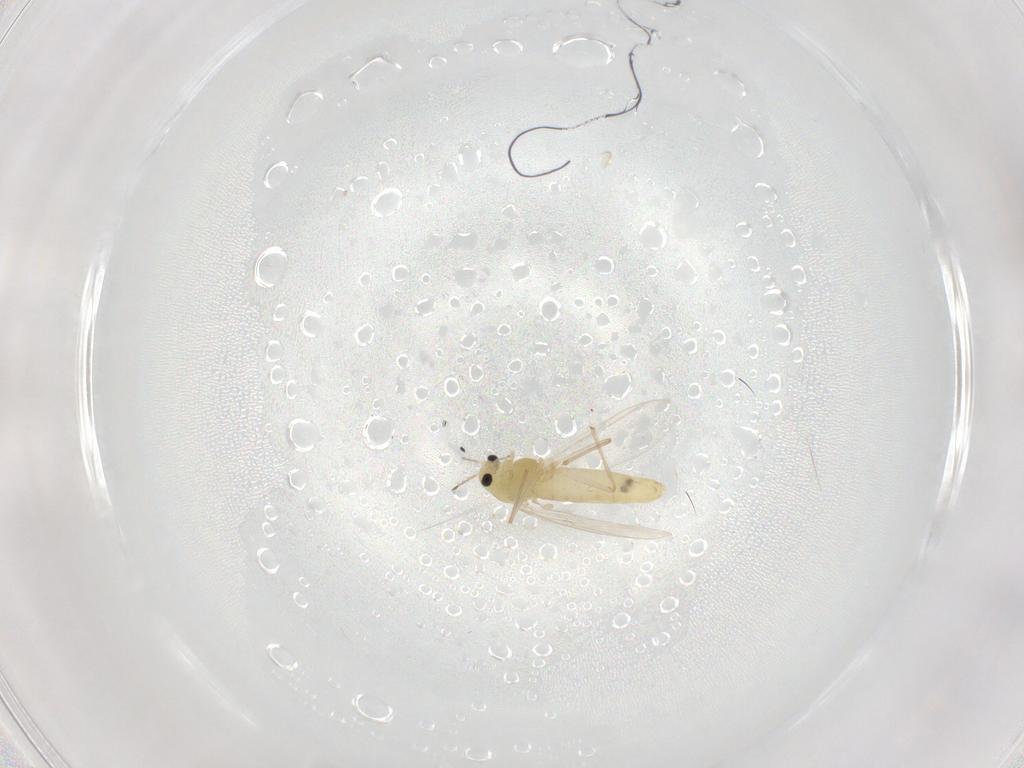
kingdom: Animalia
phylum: Arthropoda
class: Insecta
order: Diptera
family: Chironomidae
